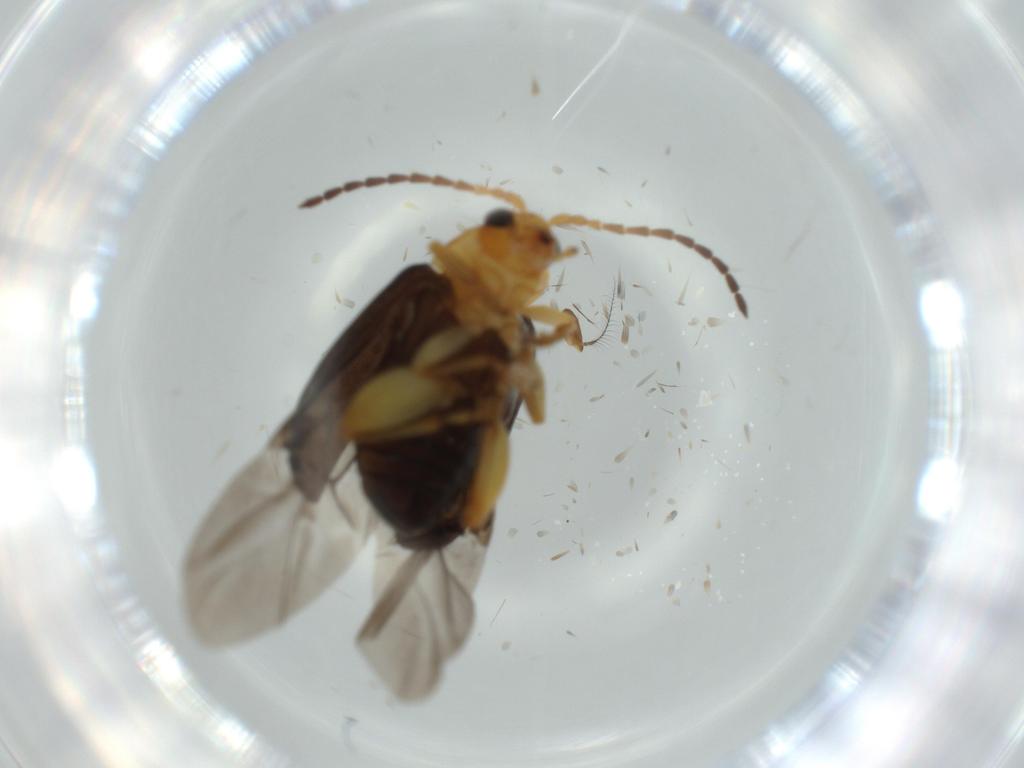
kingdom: Animalia
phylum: Arthropoda
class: Insecta
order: Coleoptera
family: Chrysomelidae
